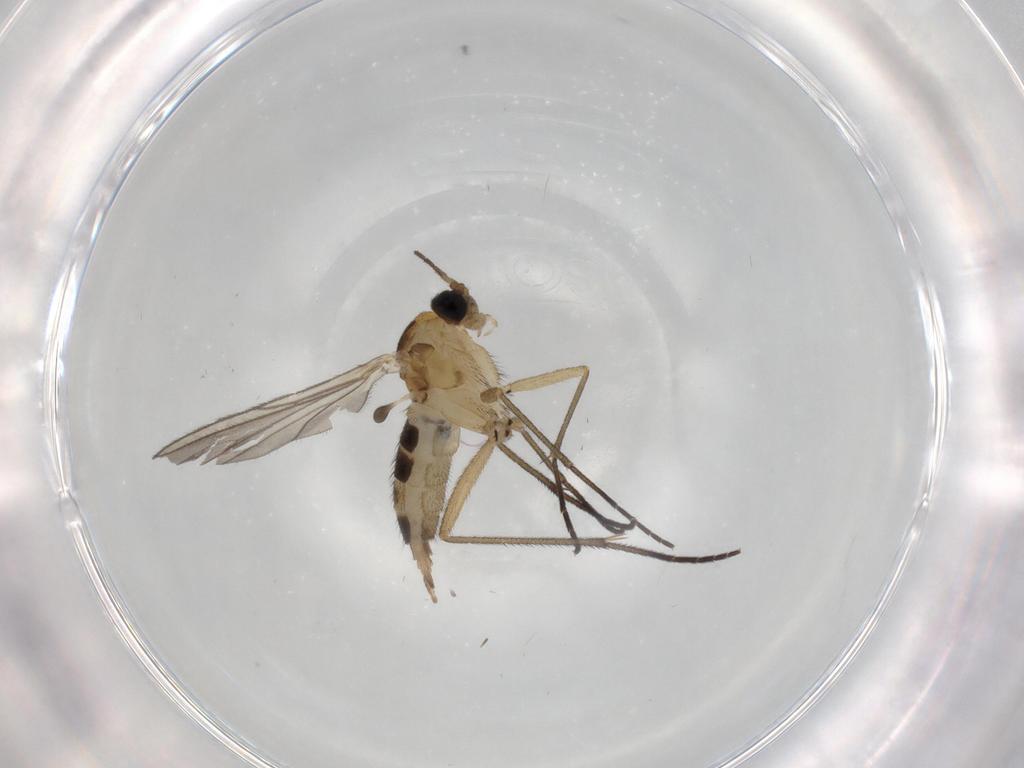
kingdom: Animalia
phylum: Arthropoda
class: Insecta
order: Diptera
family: Sciaridae
